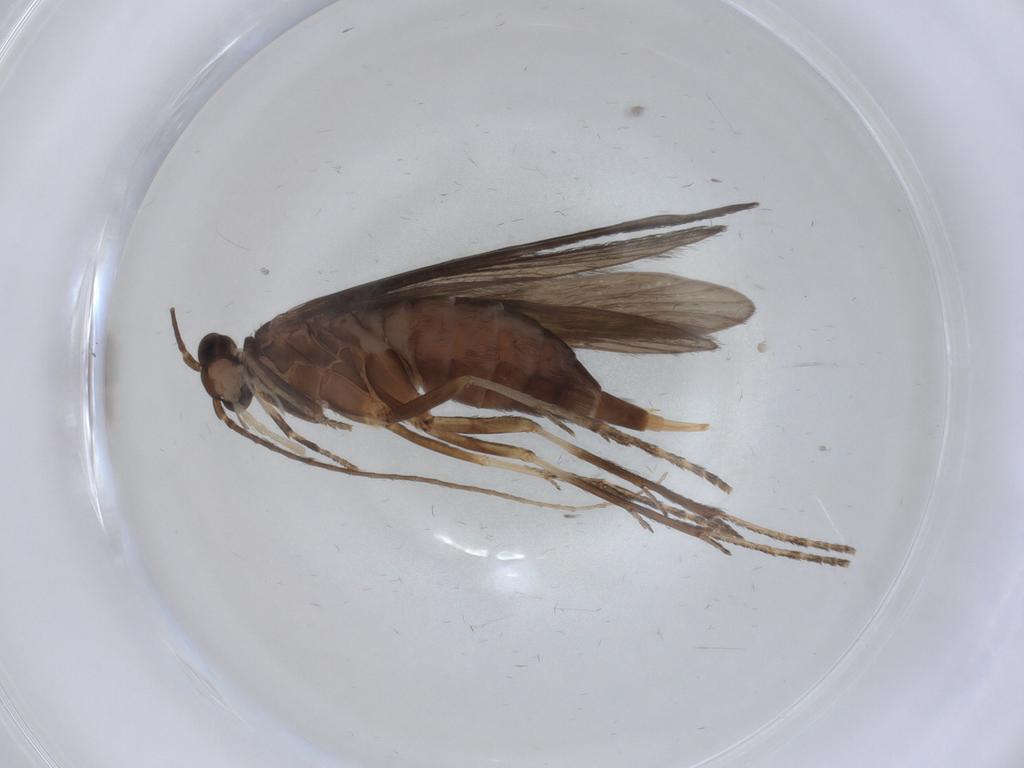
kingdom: Animalia
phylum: Arthropoda
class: Insecta
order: Trichoptera
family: Xiphocentronidae
